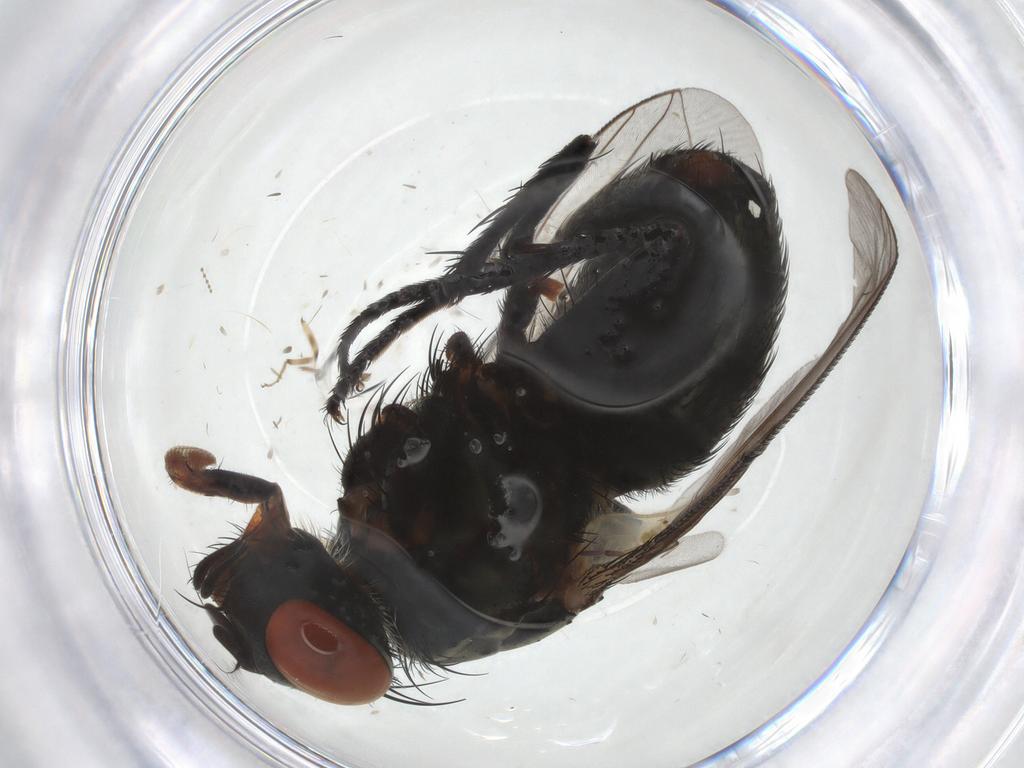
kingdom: Animalia
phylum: Arthropoda
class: Insecta
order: Diptera
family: Sarcophagidae
